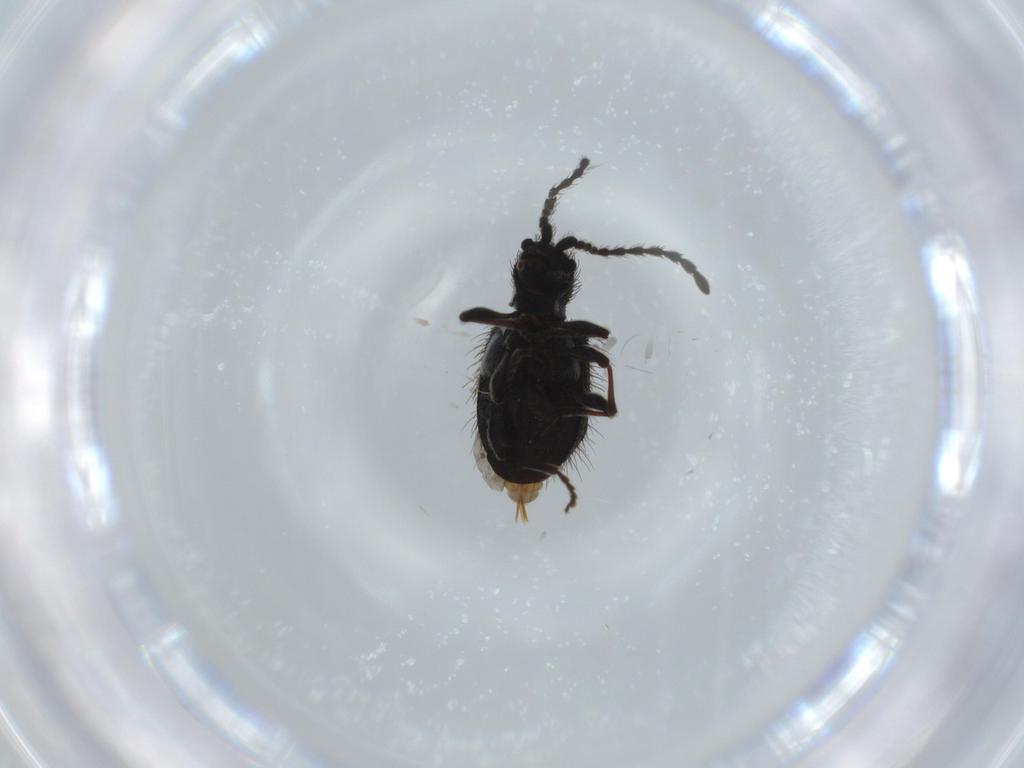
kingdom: Animalia
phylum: Arthropoda
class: Insecta
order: Coleoptera
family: Ptinidae
